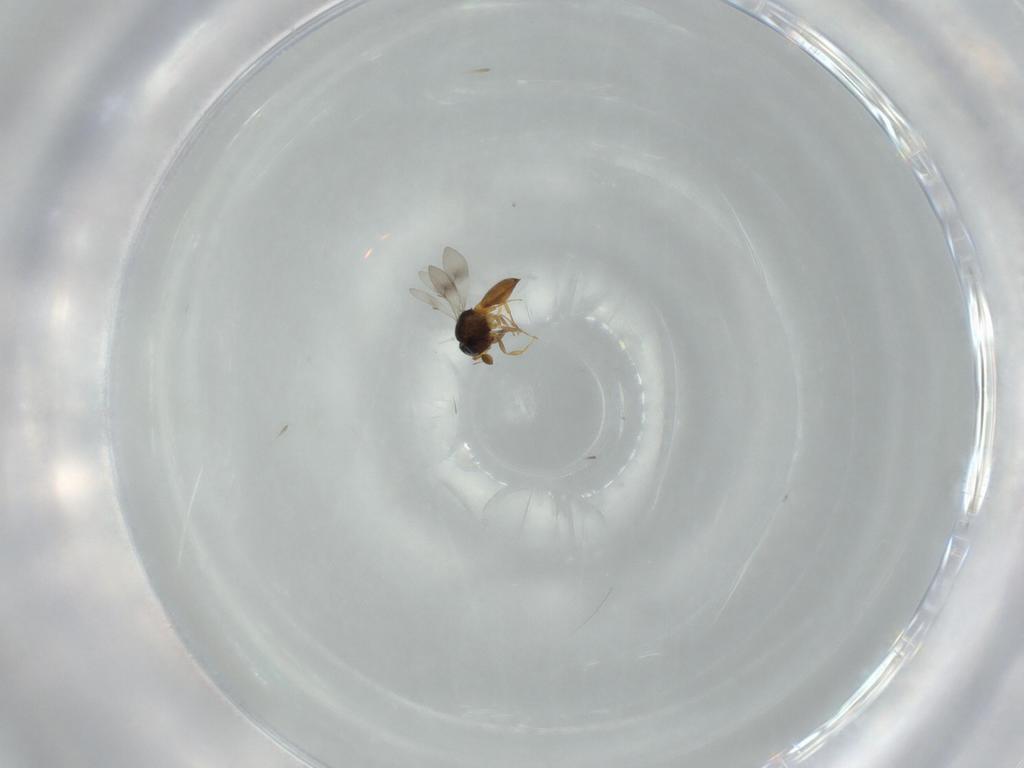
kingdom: Animalia
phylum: Arthropoda
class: Insecta
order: Hymenoptera
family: Scelionidae
